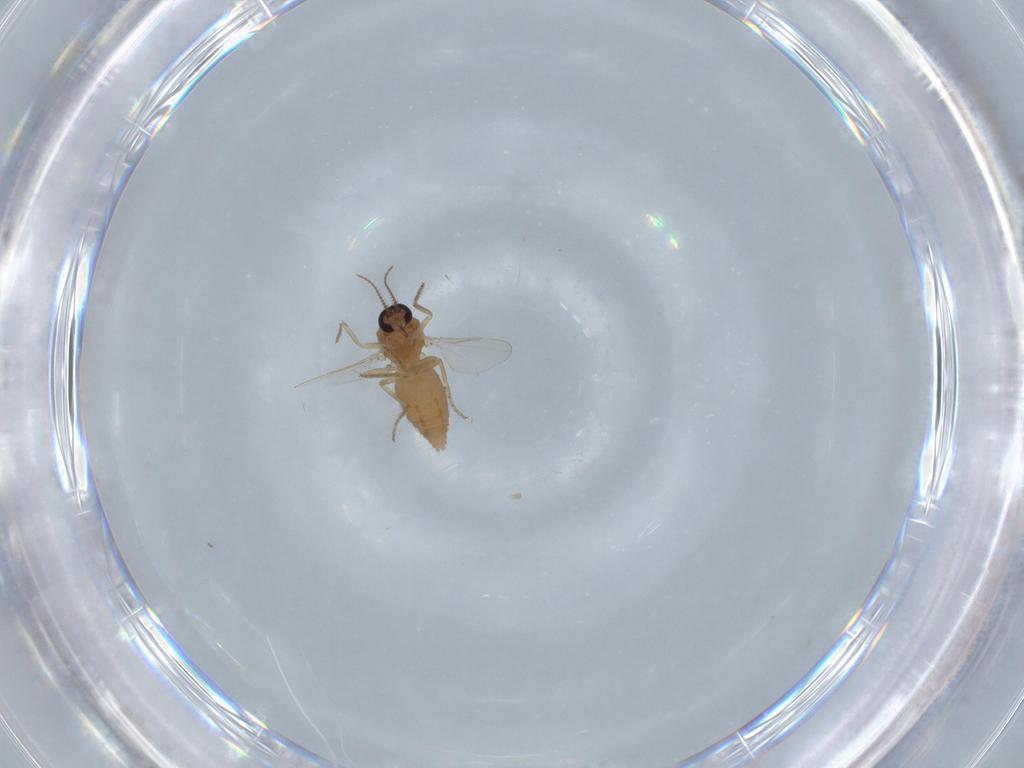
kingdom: Animalia
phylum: Arthropoda
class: Insecta
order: Diptera
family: Ceratopogonidae
